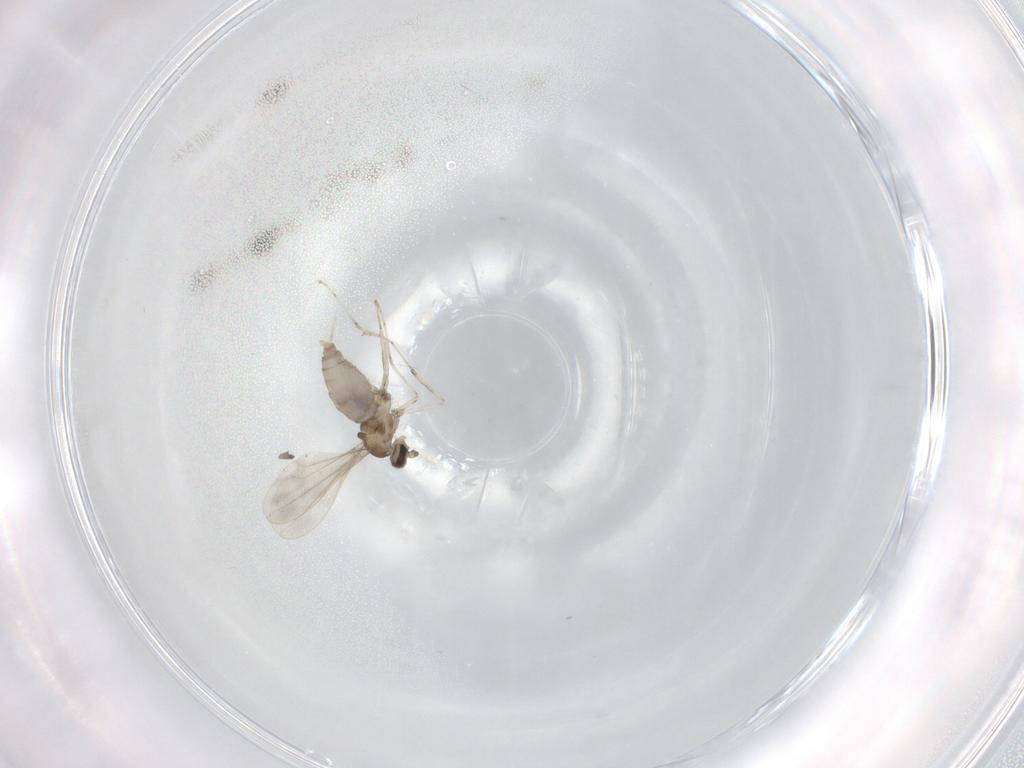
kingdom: Animalia
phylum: Arthropoda
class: Insecta
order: Diptera
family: Cecidomyiidae
